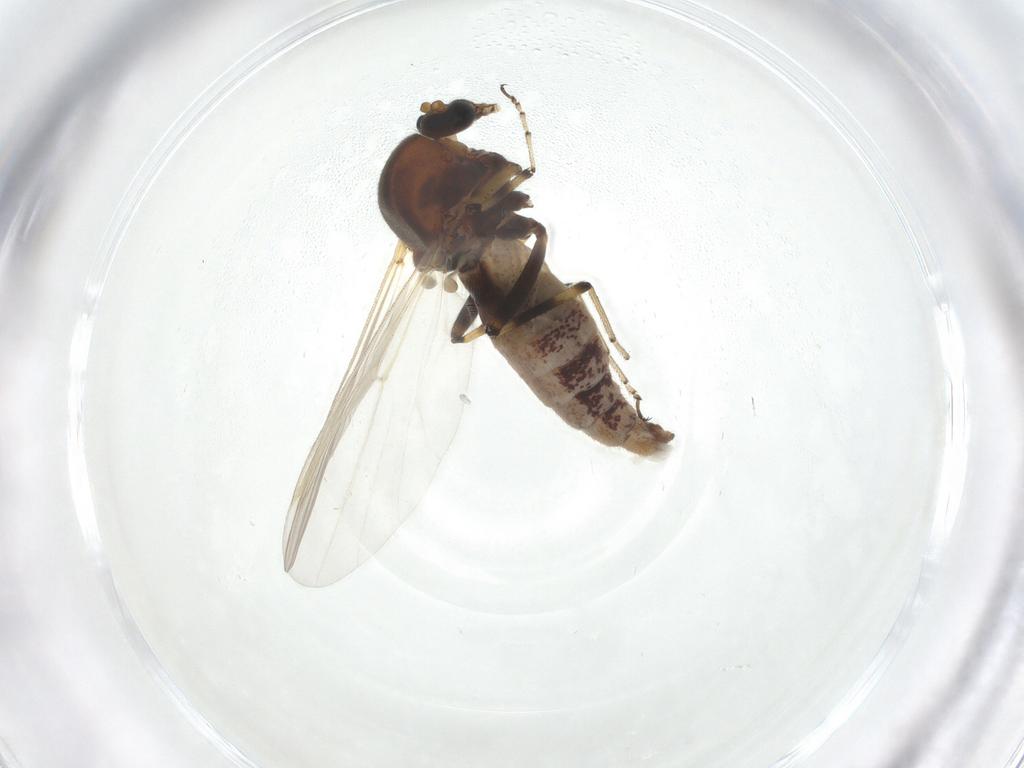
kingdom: Animalia
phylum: Arthropoda
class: Insecta
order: Diptera
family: Ceratopogonidae
